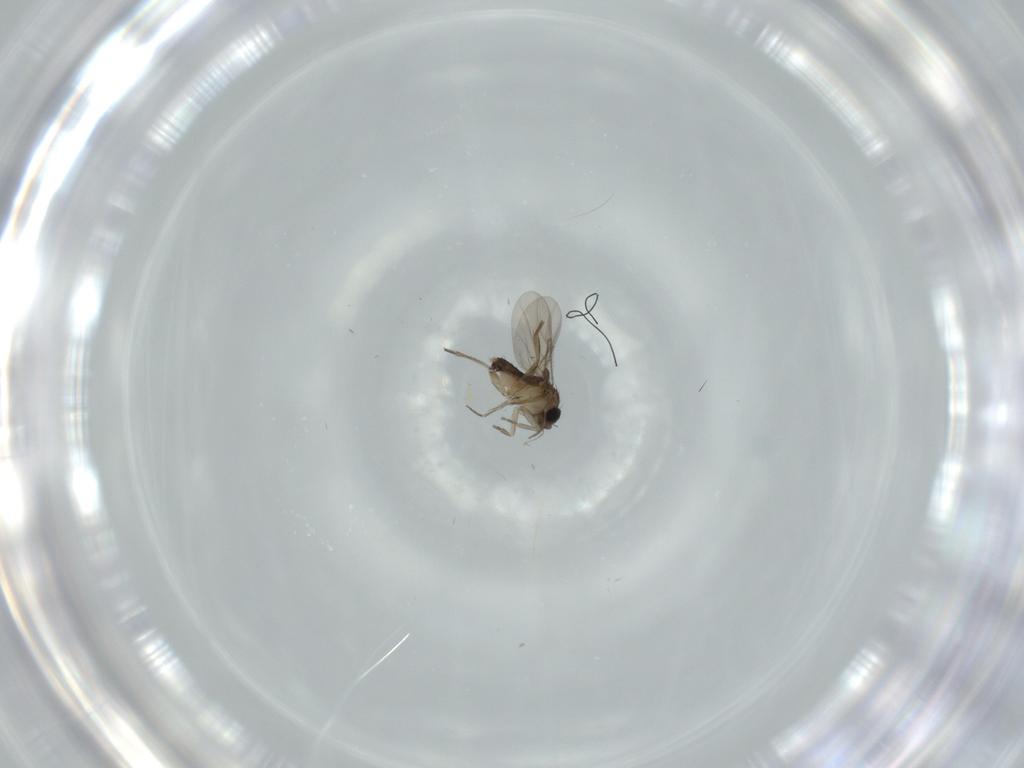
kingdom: Animalia
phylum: Arthropoda
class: Insecta
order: Diptera
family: Phoridae
